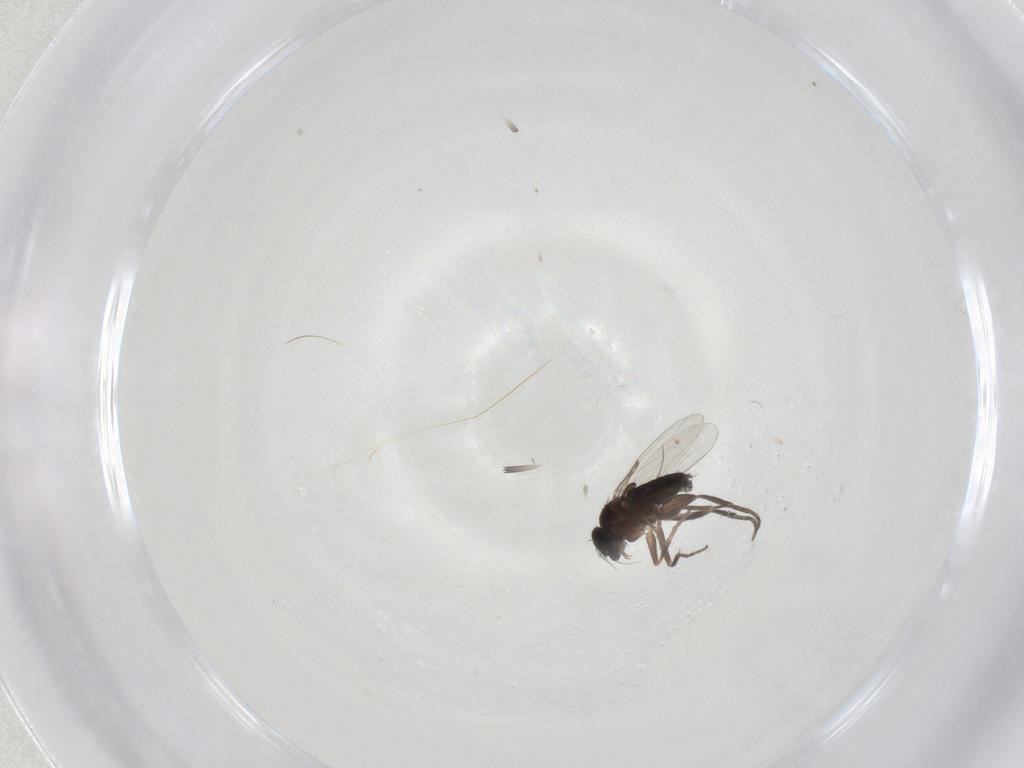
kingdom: Animalia
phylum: Arthropoda
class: Insecta
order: Diptera
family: Phoridae
